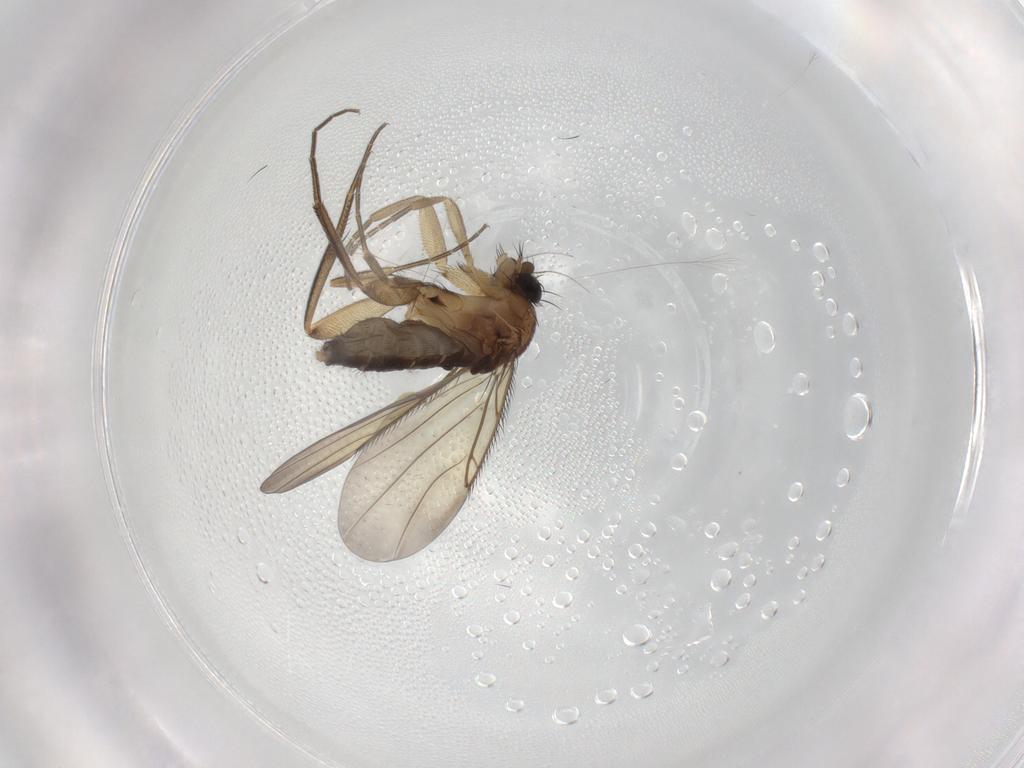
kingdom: Animalia
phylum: Arthropoda
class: Insecta
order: Diptera
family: Phoridae
